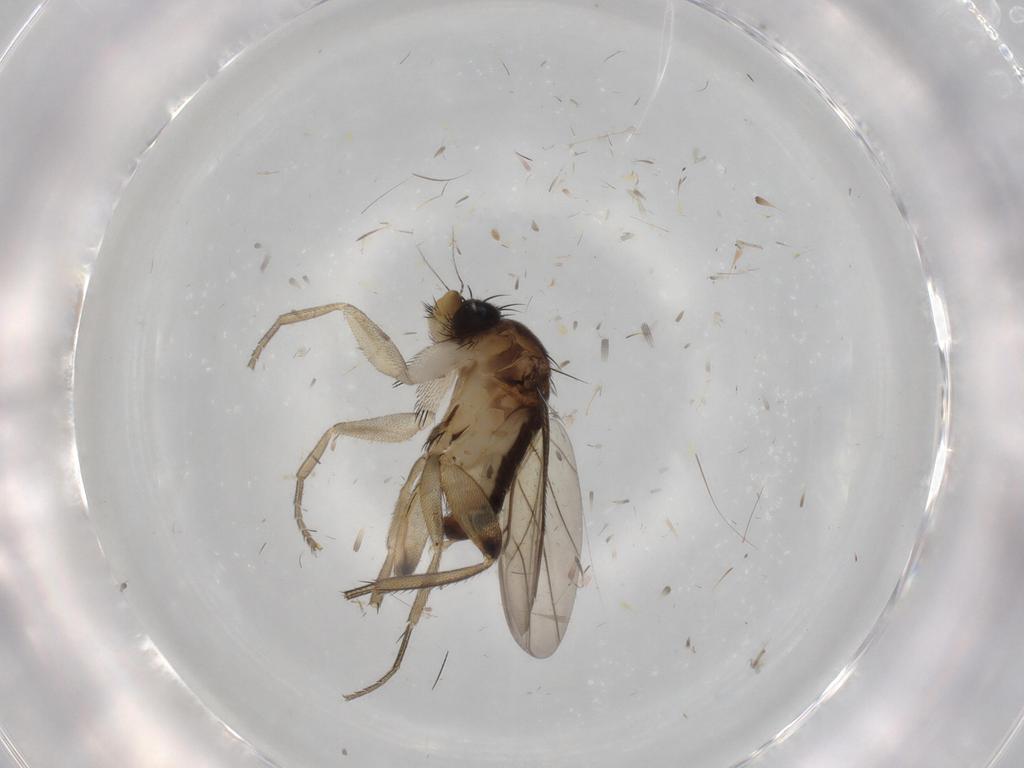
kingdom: Animalia
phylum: Arthropoda
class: Insecta
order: Diptera
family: Phoridae
